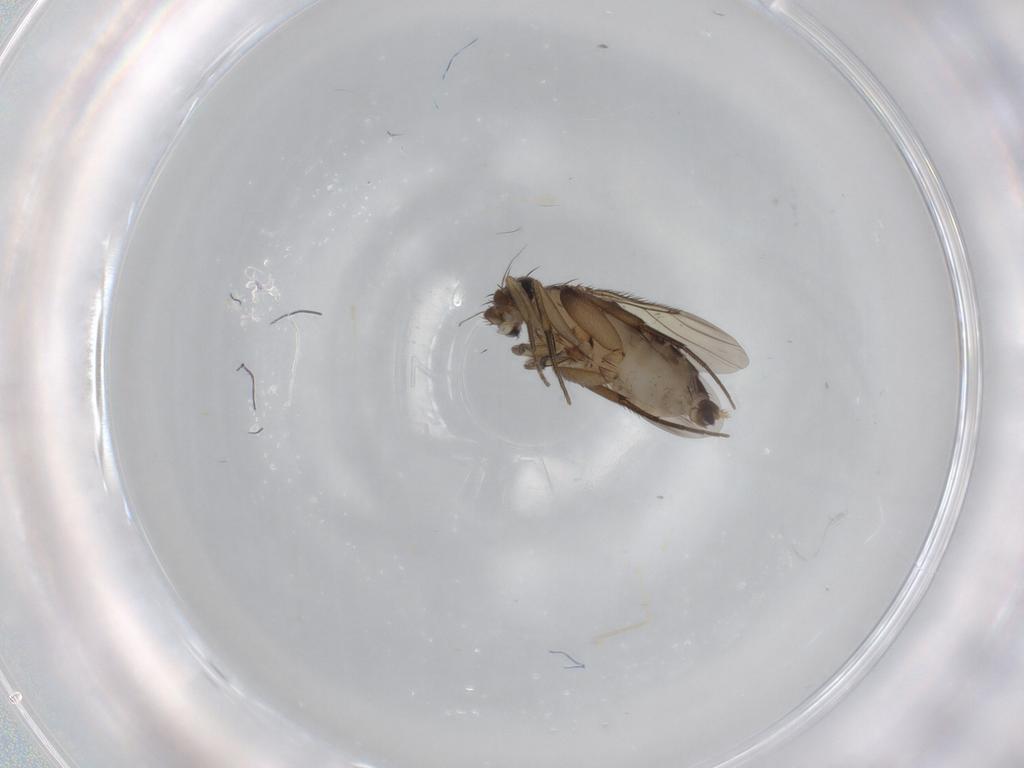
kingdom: Animalia
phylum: Arthropoda
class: Insecta
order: Diptera
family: Phoridae
